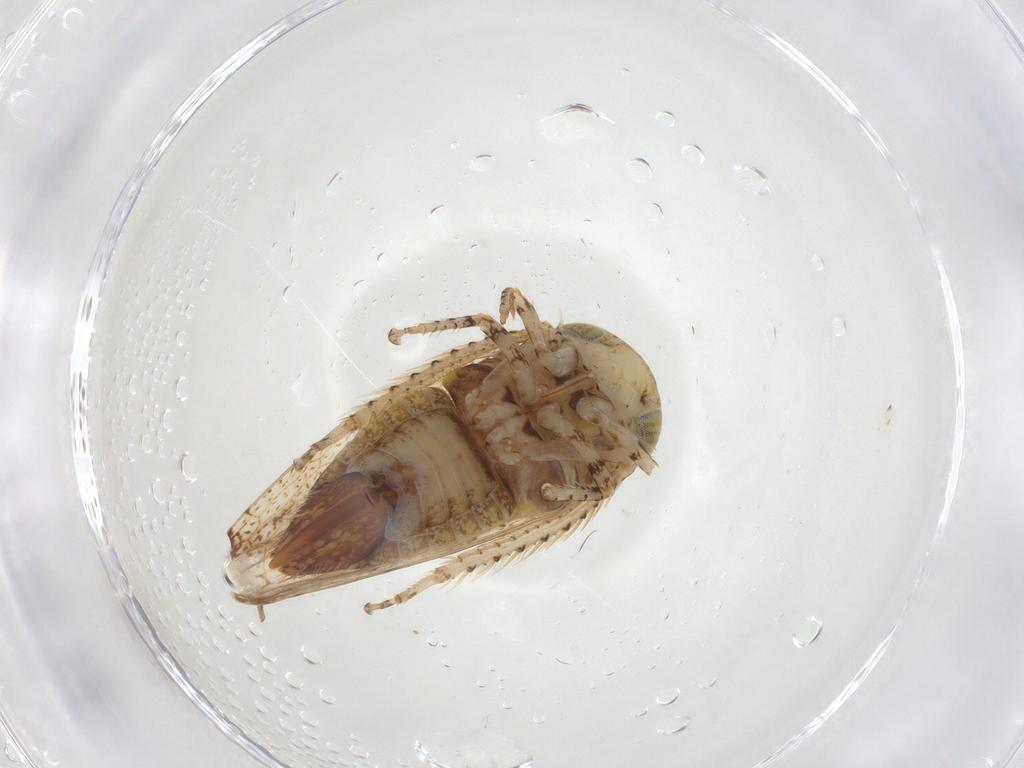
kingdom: Animalia
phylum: Arthropoda
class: Insecta
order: Hemiptera
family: Cicadellidae
